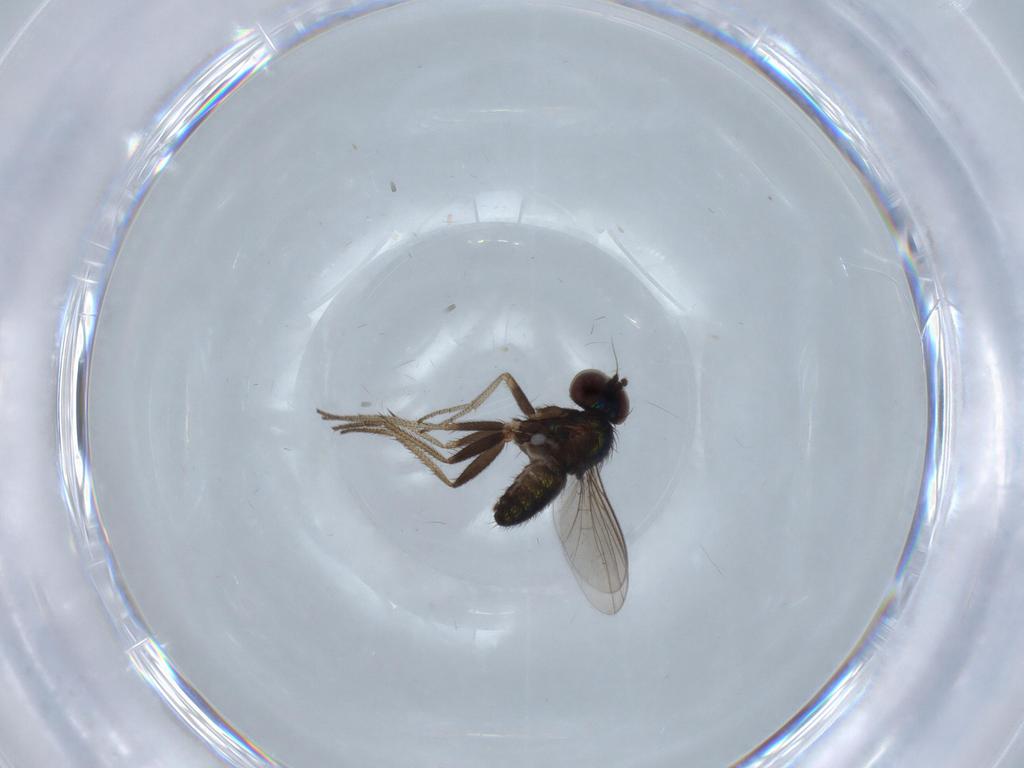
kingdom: Animalia
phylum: Arthropoda
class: Insecta
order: Diptera
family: Ceratopogonidae
